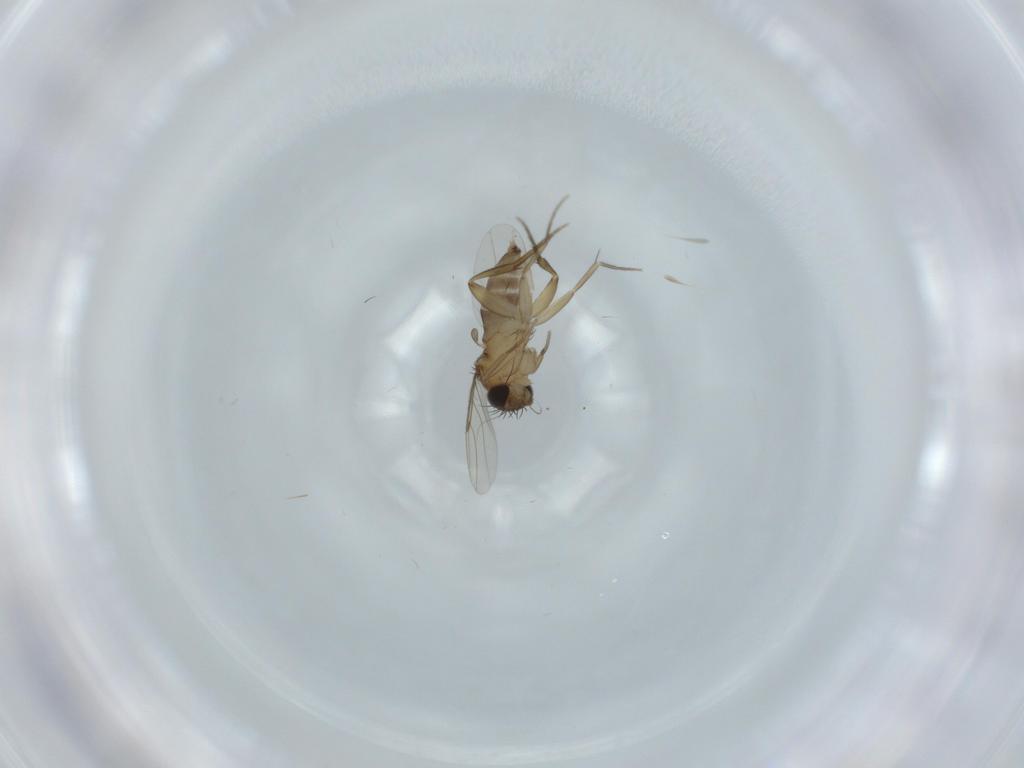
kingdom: Animalia
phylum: Arthropoda
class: Insecta
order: Diptera
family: Phoridae
